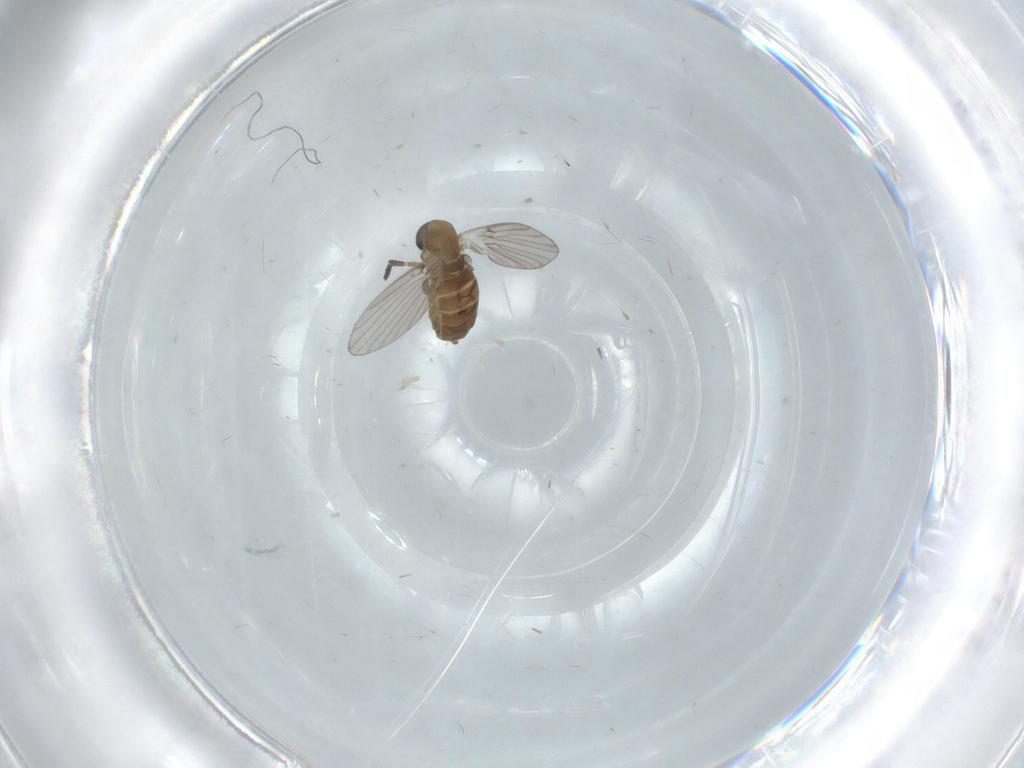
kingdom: Animalia
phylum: Arthropoda
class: Insecta
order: Diptera
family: Psychodidae
